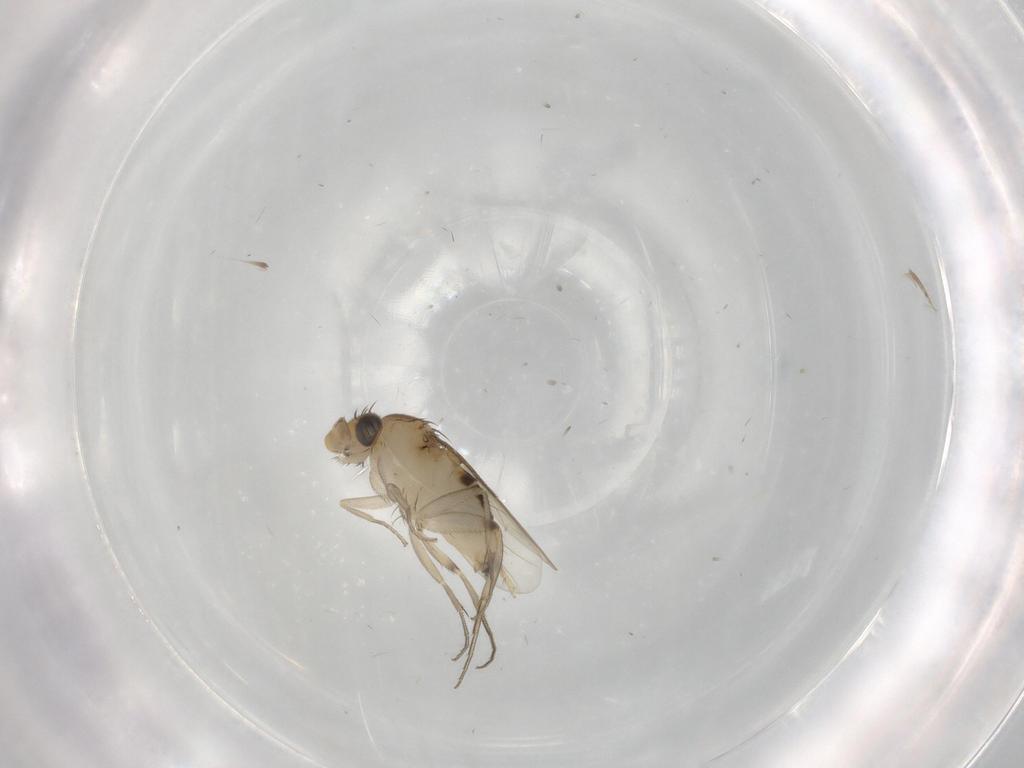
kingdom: Animalia
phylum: Arthropoda
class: Insecta
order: Diptera
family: Phoridae
